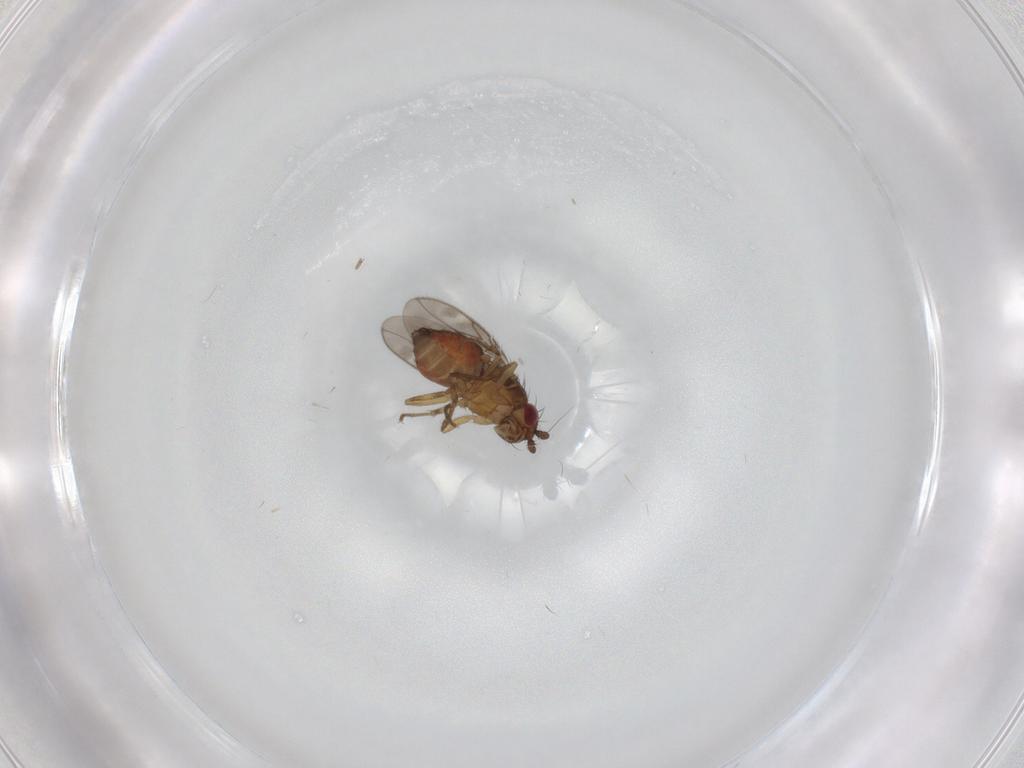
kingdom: Animalia
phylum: Arthropoda
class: Insecta
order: Diptera
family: Sphaeroceridae
